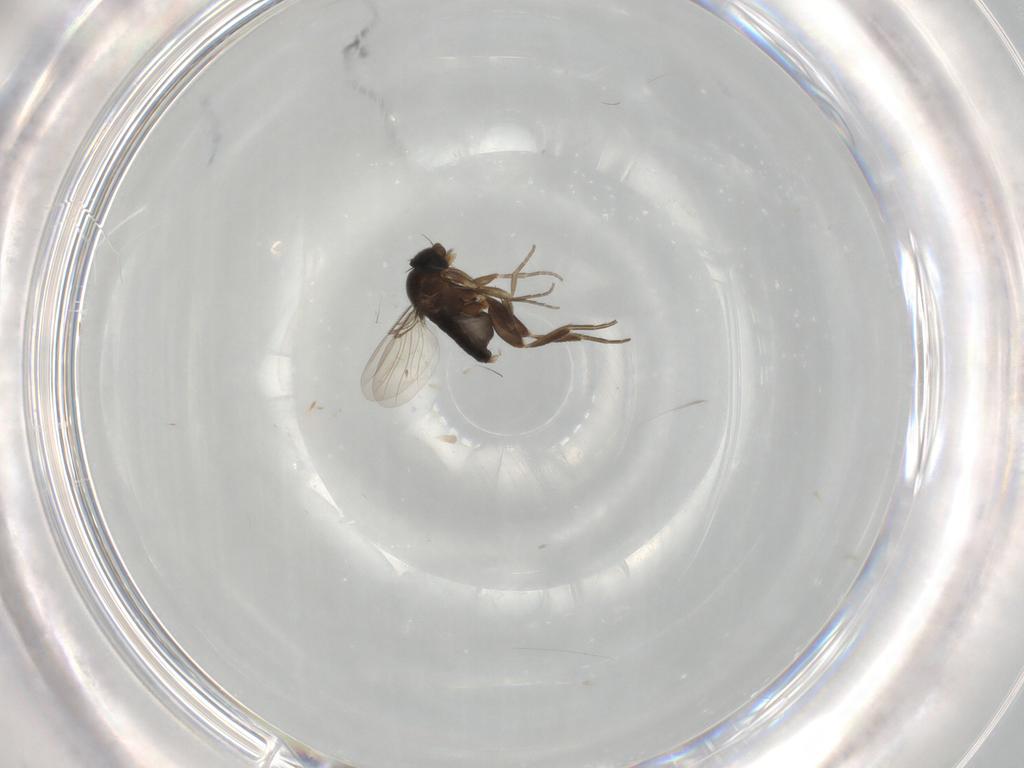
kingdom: Animalia
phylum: Arthropoda
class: Insecta
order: Diptera
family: Phoridae
